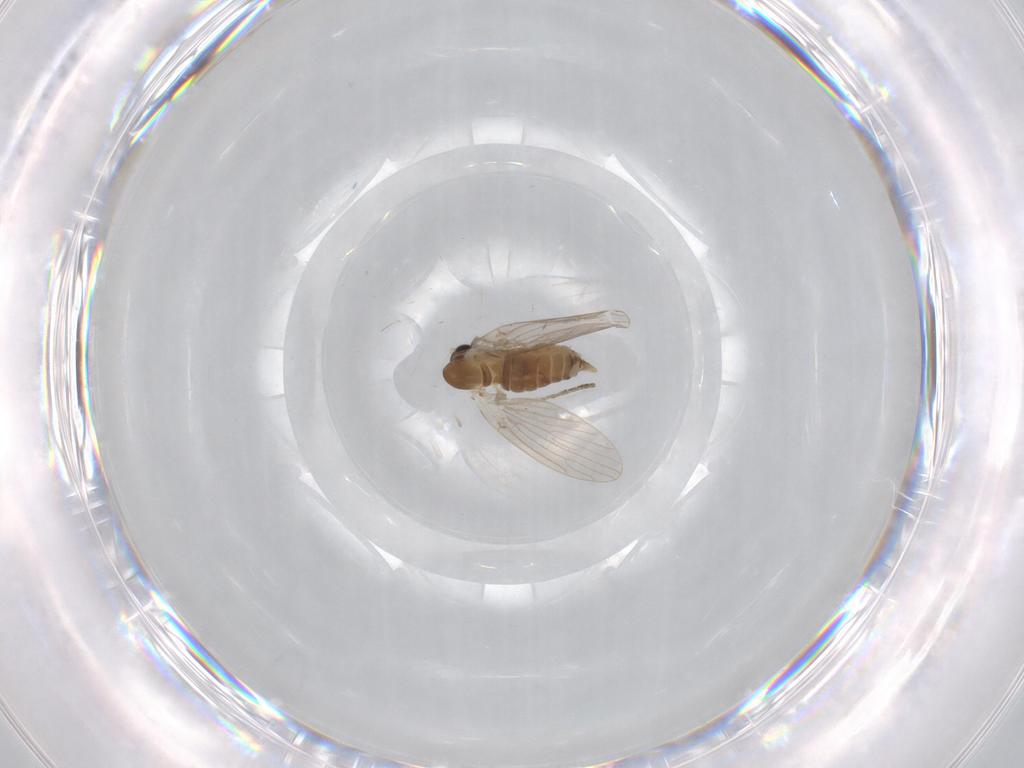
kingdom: Animalia
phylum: Arthropoda
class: Insecta
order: Diptera
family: Psychodidae
